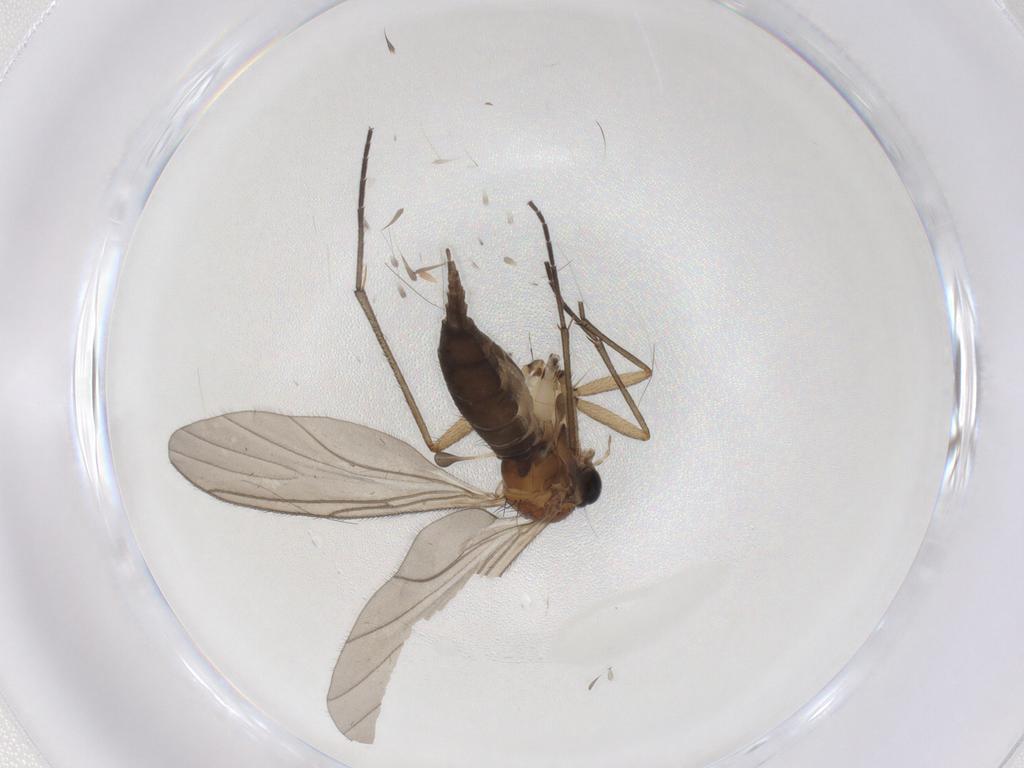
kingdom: Animalia
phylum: Arthropoda
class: Insecta
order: Diptera
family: Sciaridae
